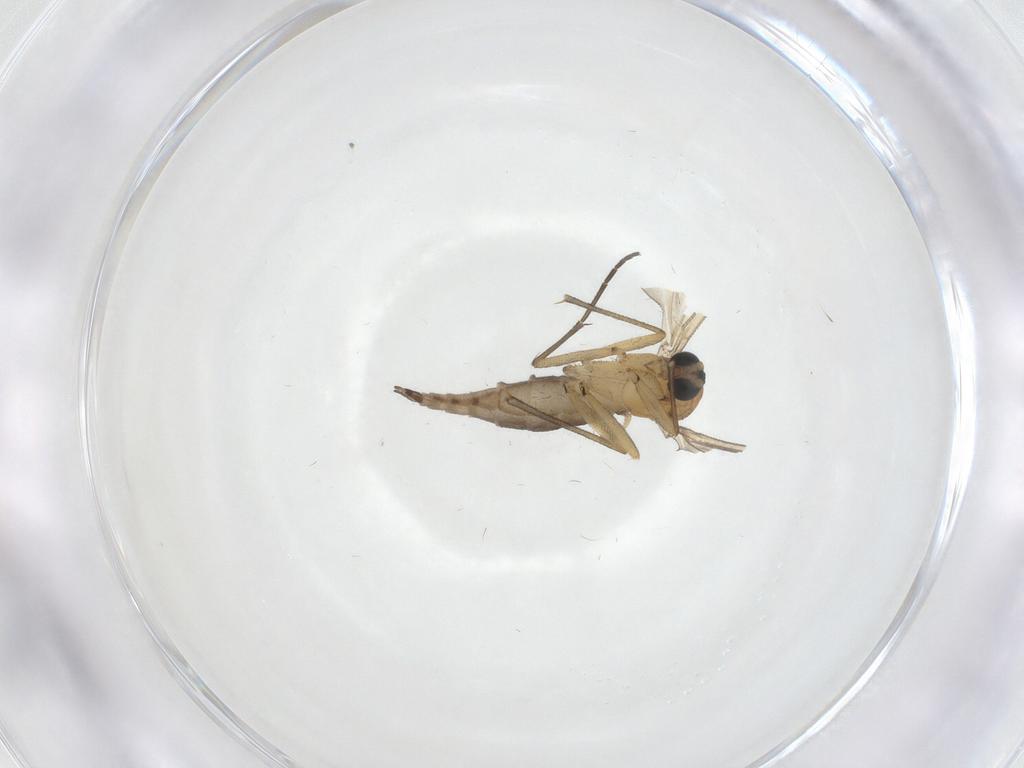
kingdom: Animalia
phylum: Arthropoda
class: Insecta
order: Diptera
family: Sciaridae
